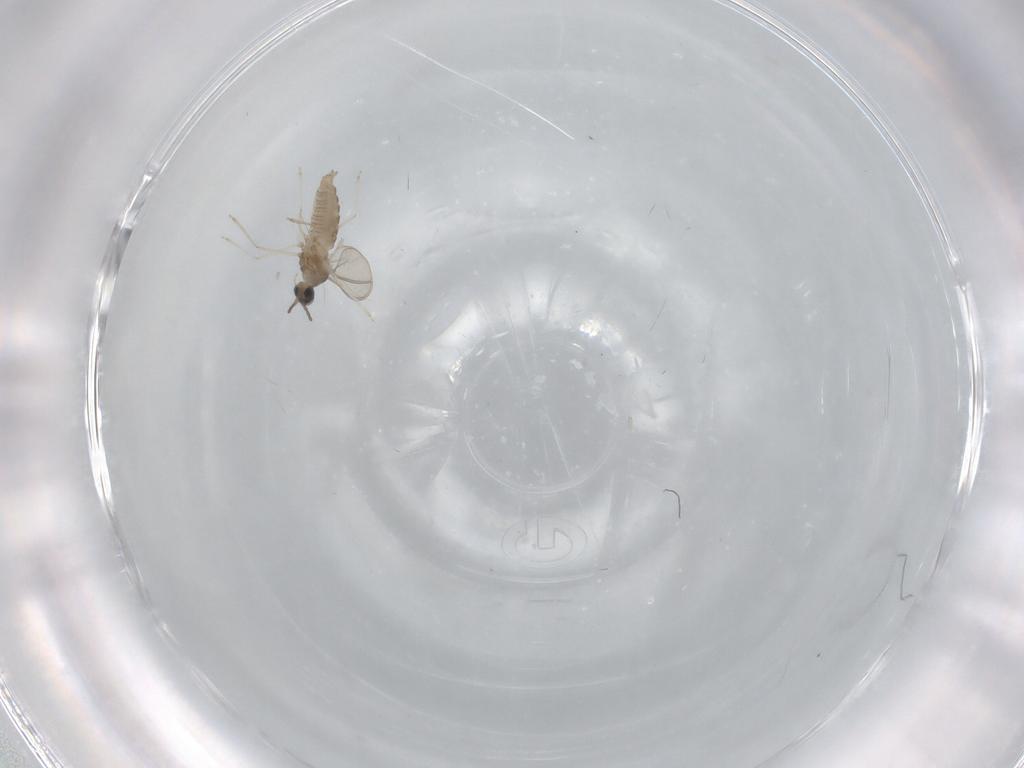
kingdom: Animalia
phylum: Arthropoda
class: Insecta
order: Diptera
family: Cecidomyiidae
